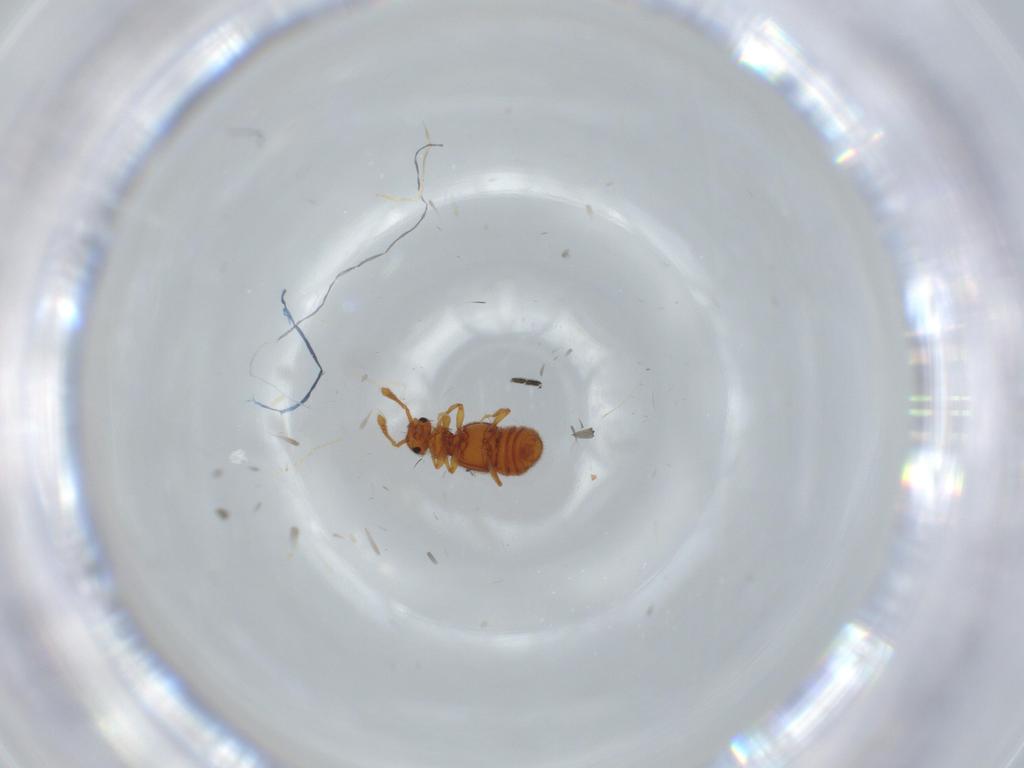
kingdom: Animalia
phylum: Arthropoda
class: Insecta
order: Coleoptera
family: Staphylinidae
